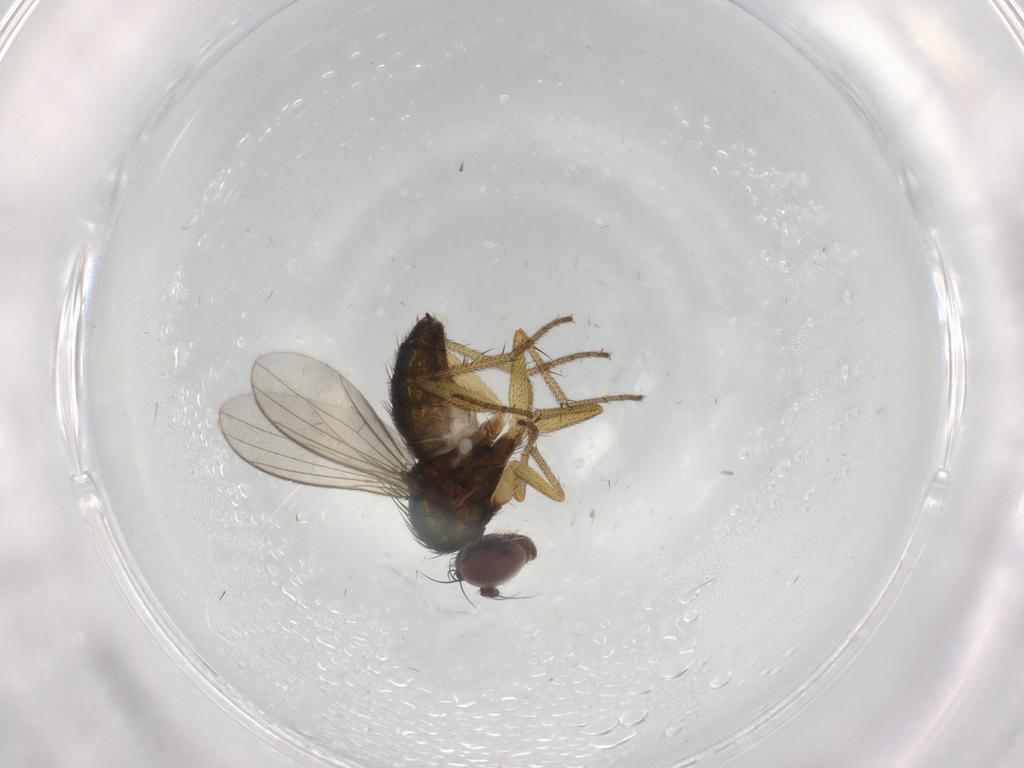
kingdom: Animalia
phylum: Arthropoda
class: Insecta
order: Diptera
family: Dolichopodidae
